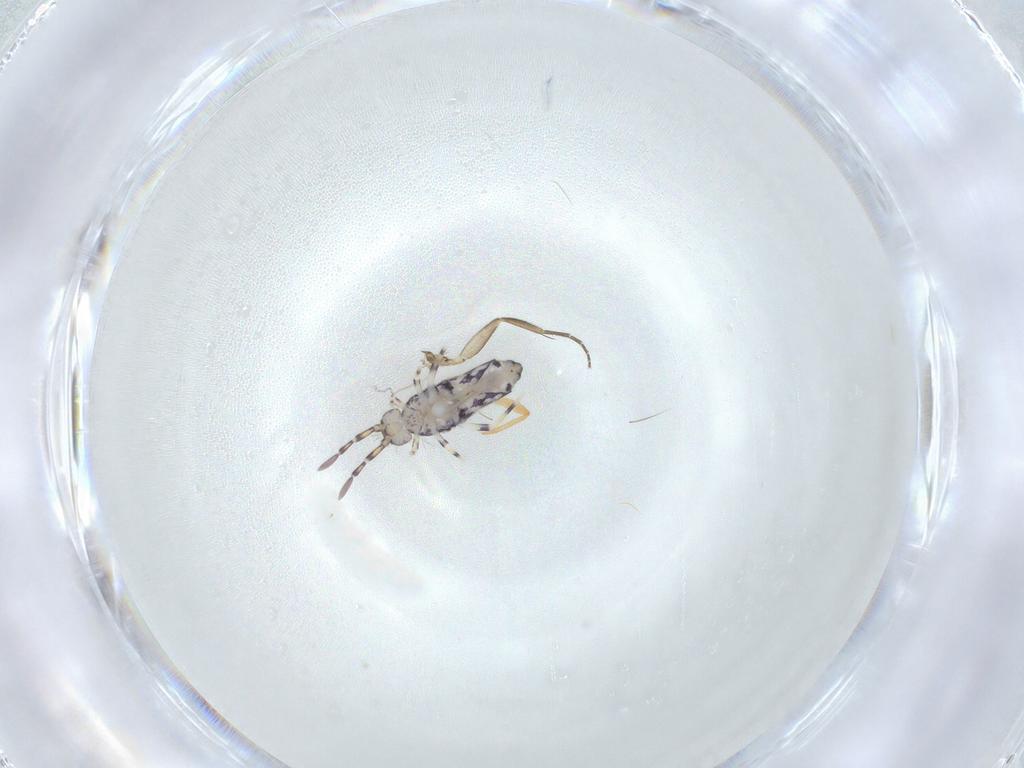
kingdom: Animalia
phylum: Arthropoda
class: Collembola
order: Entomobryomorpha
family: Entomobryidae
